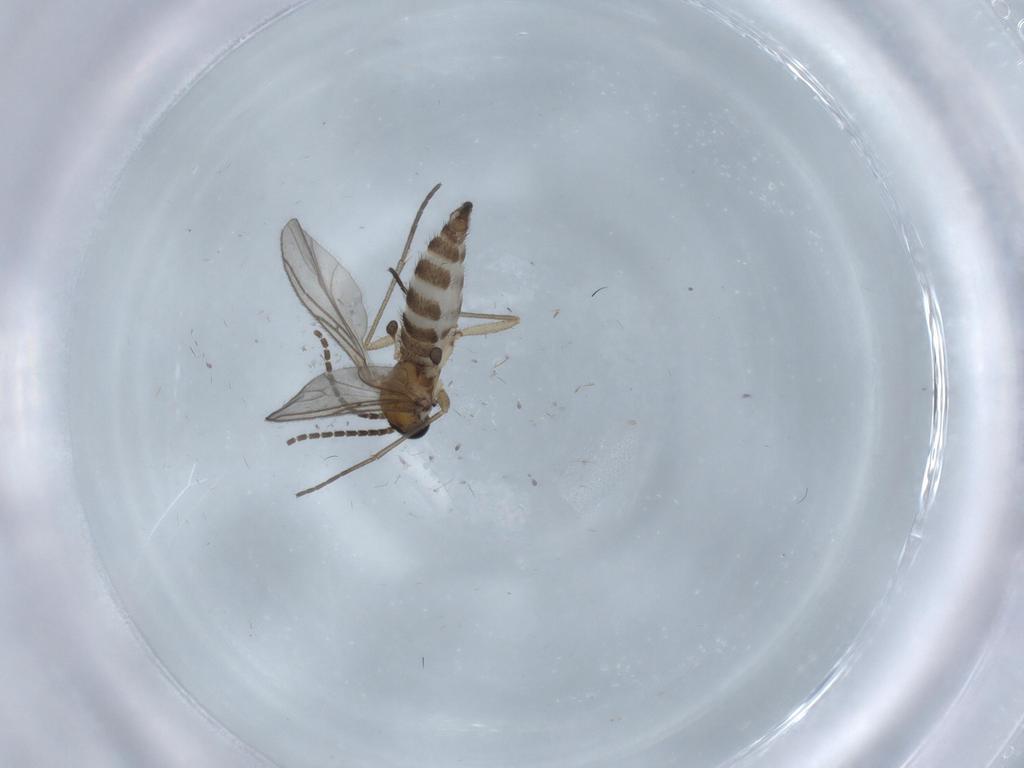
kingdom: Animalia
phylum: Arthropoda
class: Insecta
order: Diptera
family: Sciaridae
